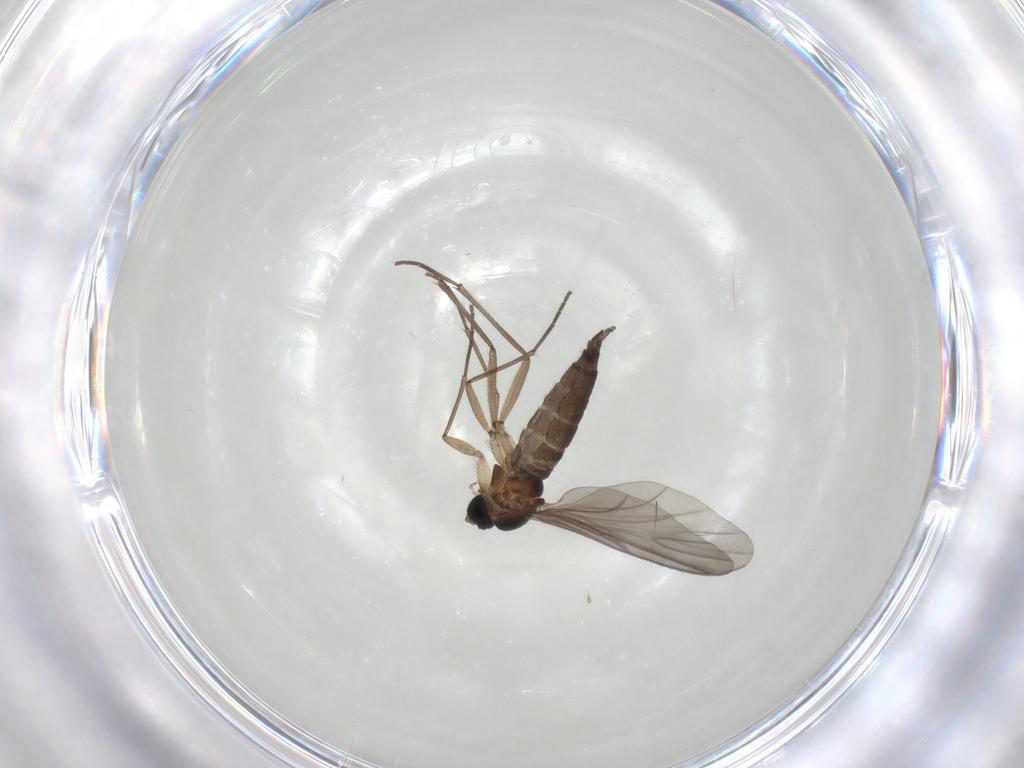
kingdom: Animalia
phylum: Arthropoda
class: Insecta
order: Diptera
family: Sciaridae
